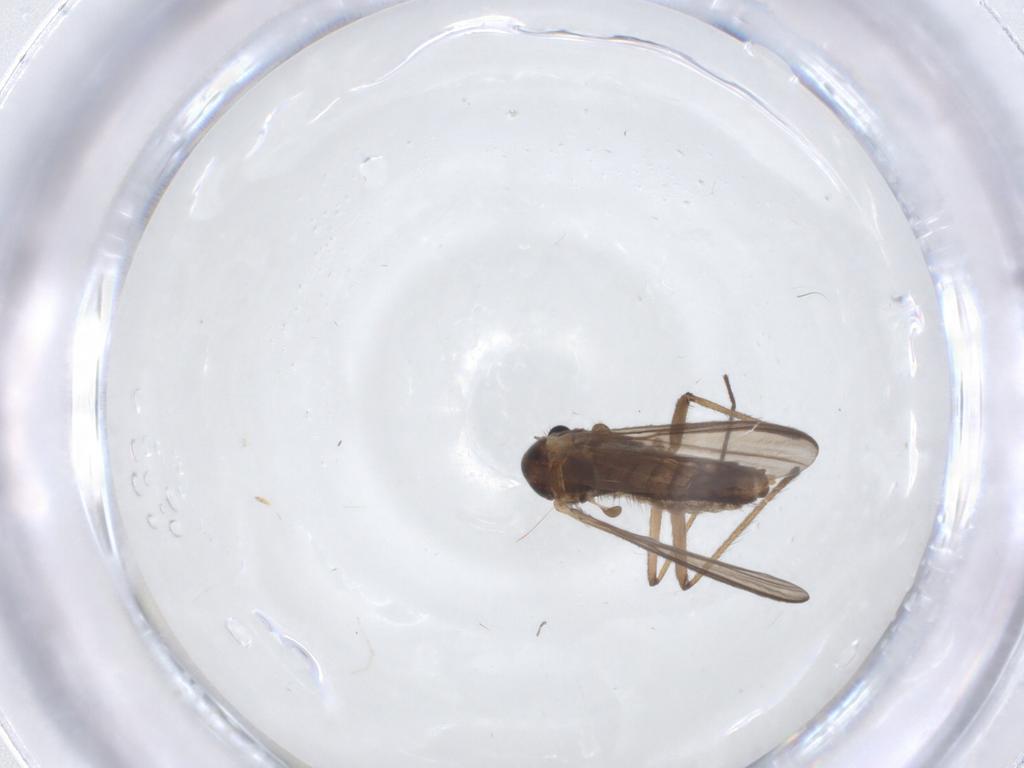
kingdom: Animalia
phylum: Arthropoda
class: Insecta
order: Diptera
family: Chironomidae
